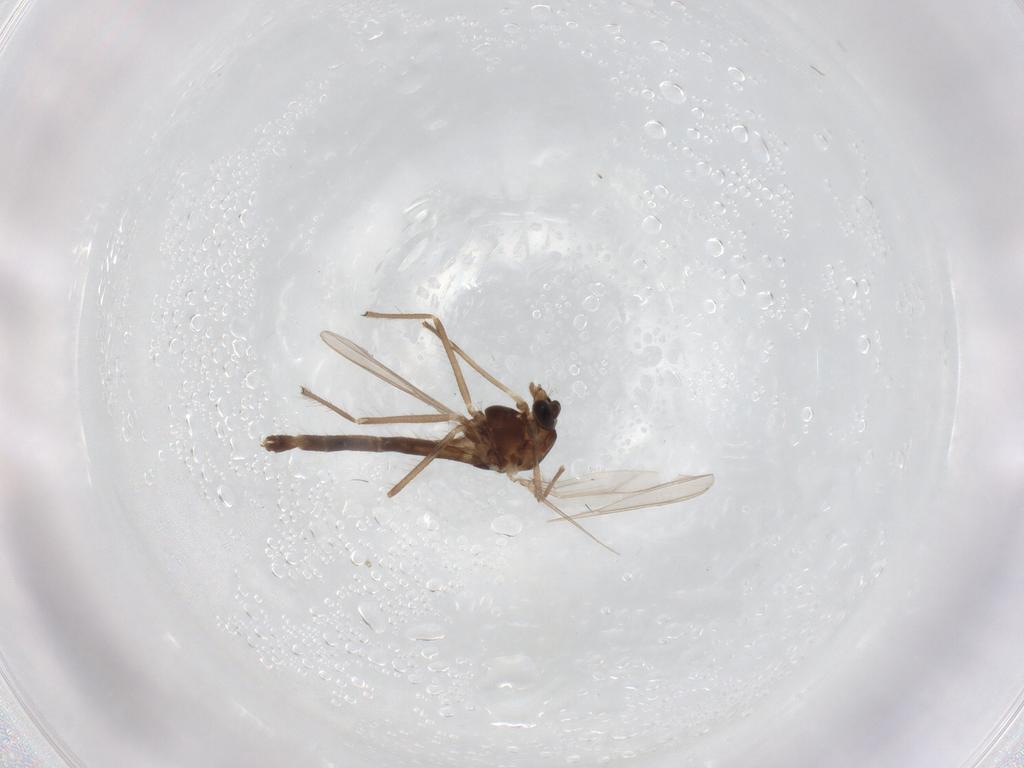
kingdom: Animalia
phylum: Arthropoda
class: Insecta
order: Diptera
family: Chironomidae
